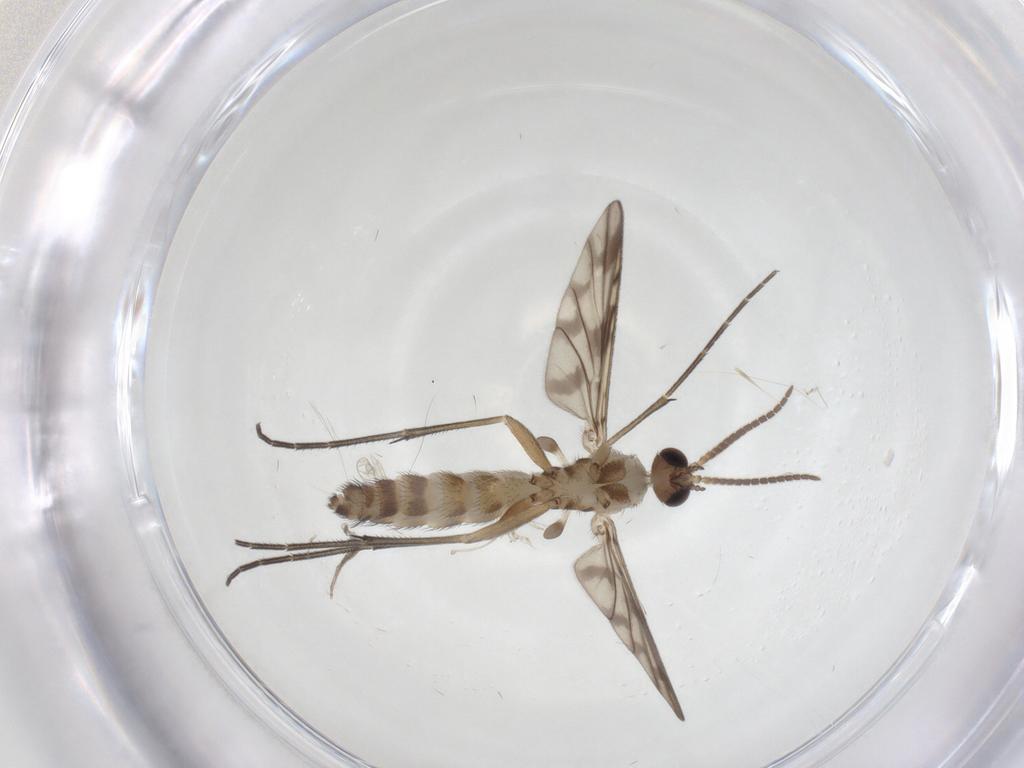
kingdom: Animalia
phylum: Arthropoda
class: Insecta
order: Diptera
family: Keroplatidae
